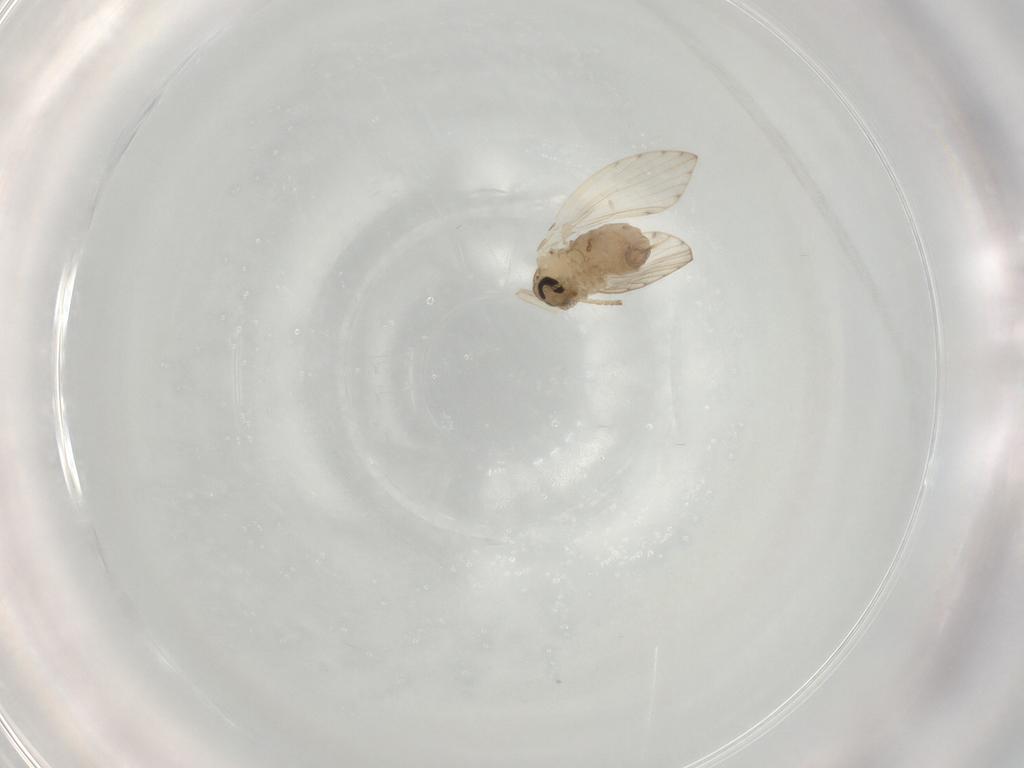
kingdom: Animalia
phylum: Arthropoda
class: Insecta
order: Diptera
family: Psychodidae
